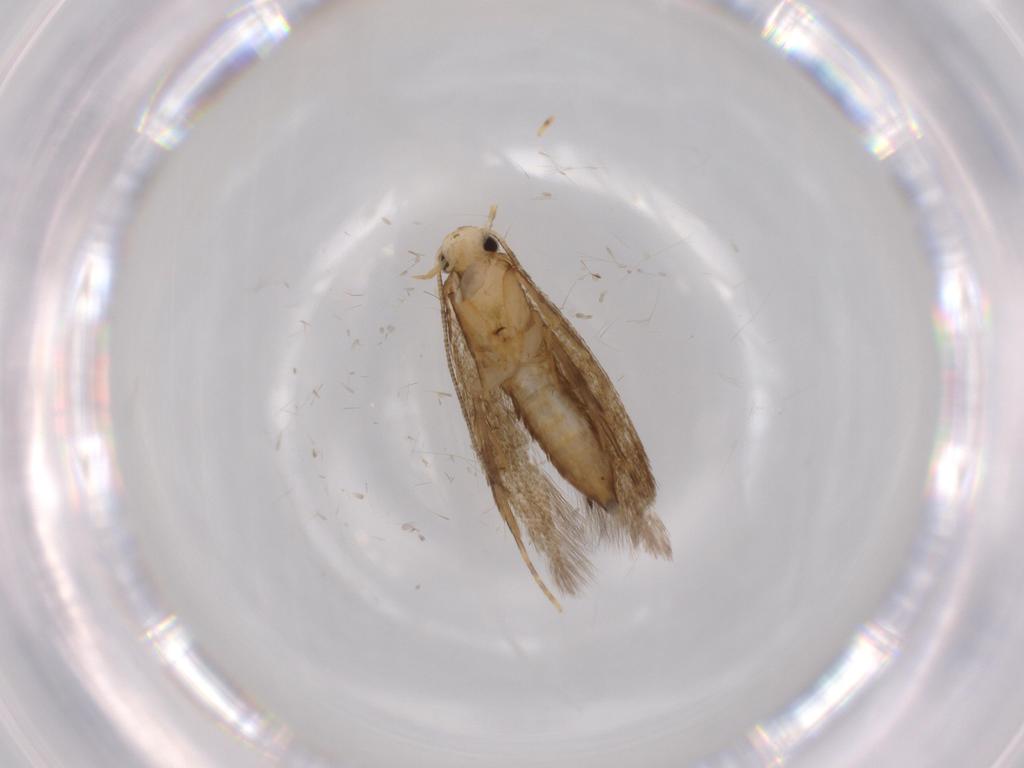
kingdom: Animalia
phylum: Arthropoda
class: Insecta
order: Lepidoptera
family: Tineidae
